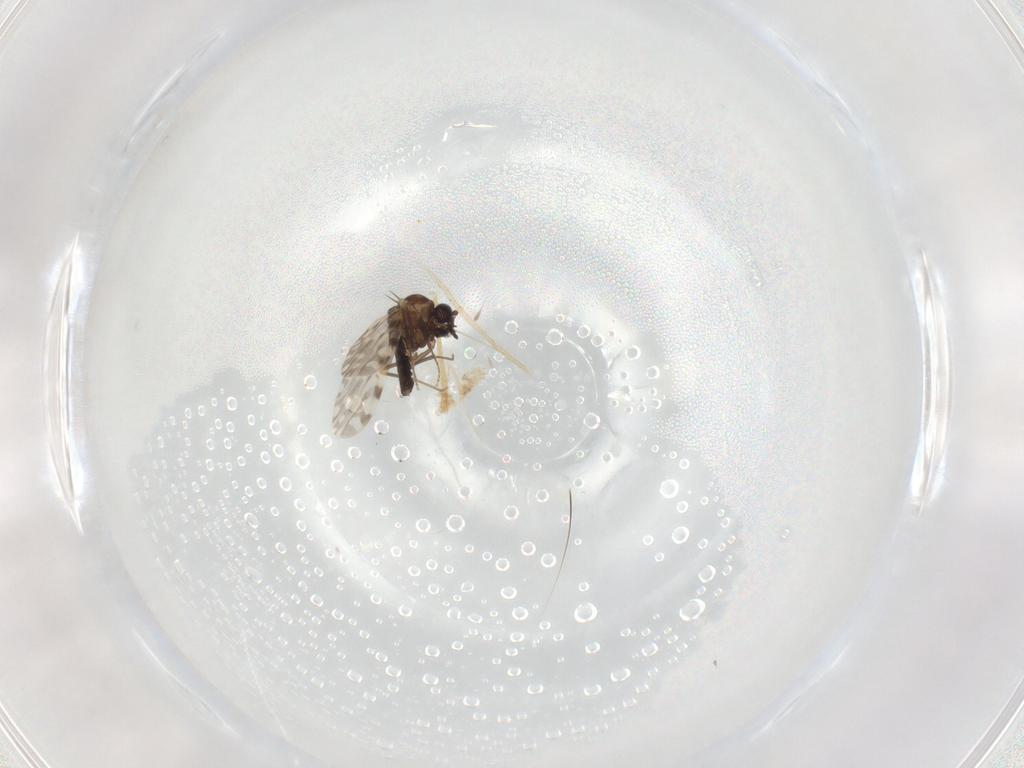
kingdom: Animalia
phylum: Arthropoda
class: Insecta
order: Diptera
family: Ceratopogonidae
